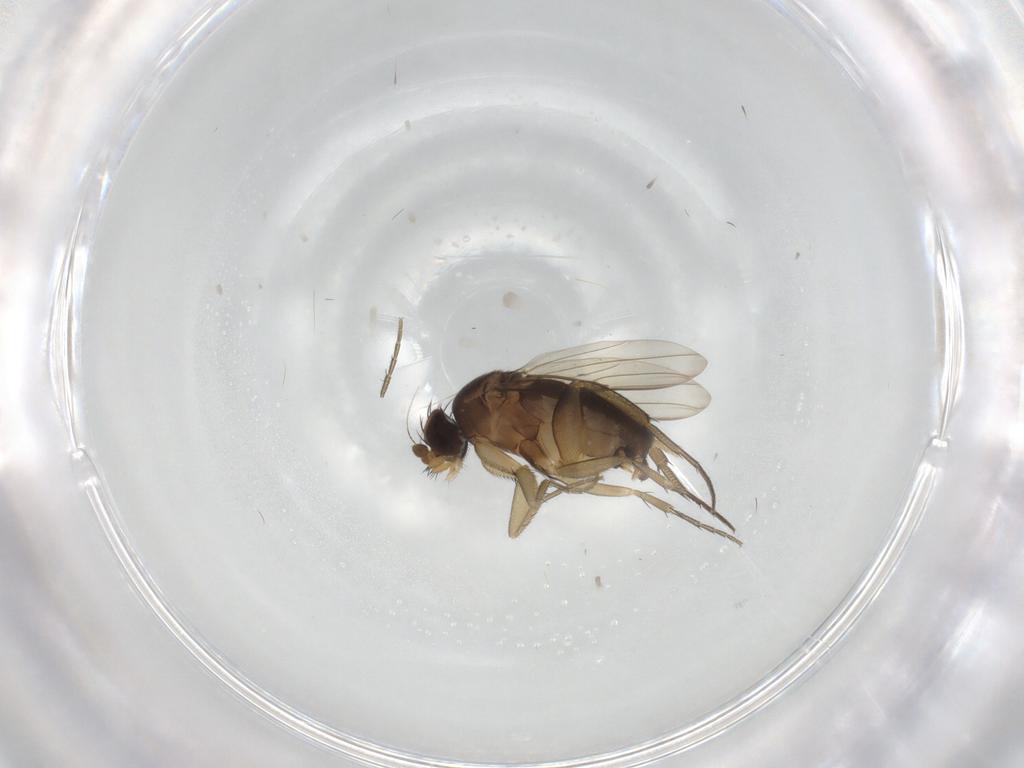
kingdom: Animalia
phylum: Arthropoda
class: Insecta
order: Diptera
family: Phoridae
